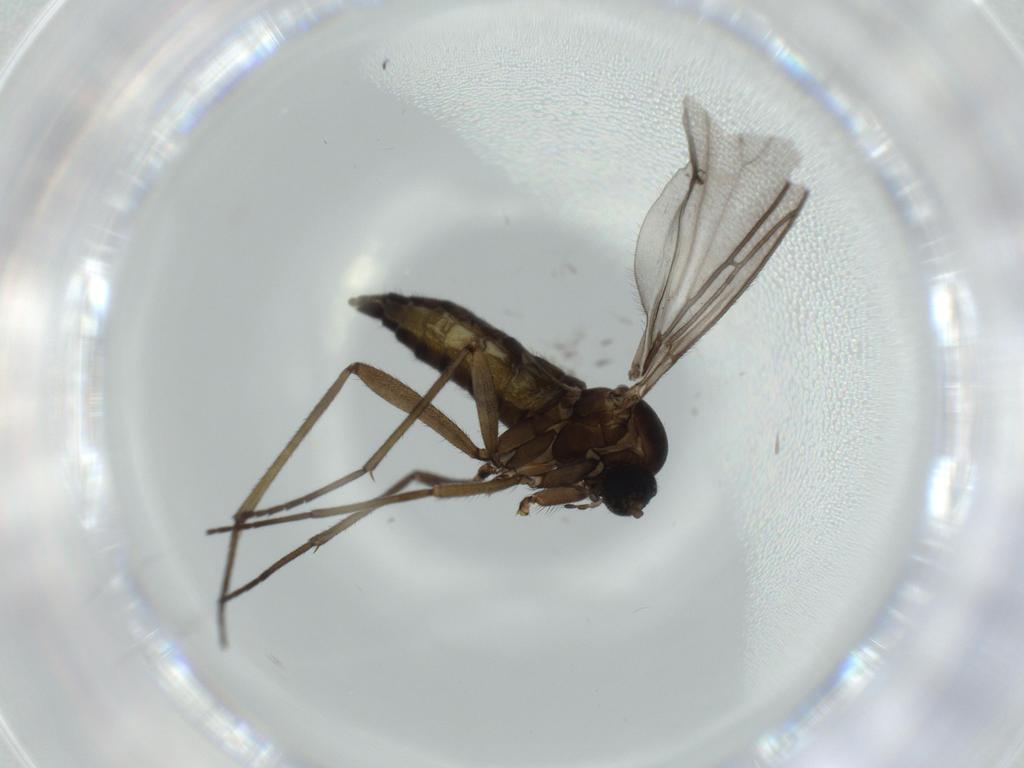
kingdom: Animalia
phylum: Arthropoda
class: Insecta
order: Diptera
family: Sciaridae
